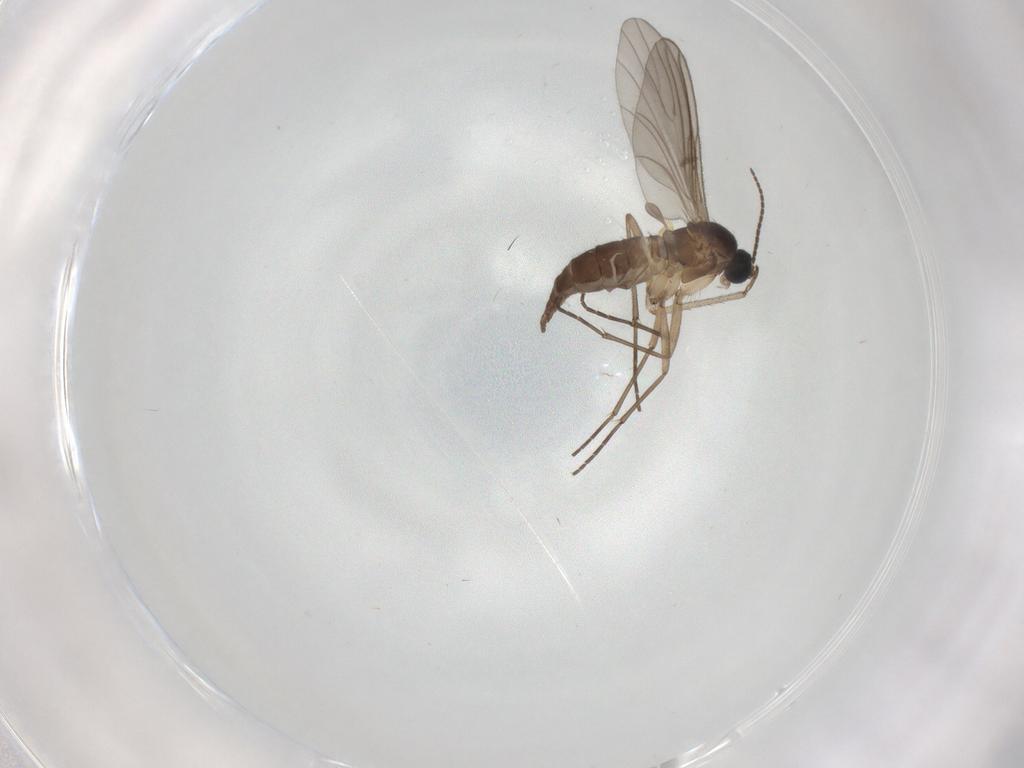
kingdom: Animalia
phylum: Arthropoda
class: Insecta
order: Diptera
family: Sciaridae
